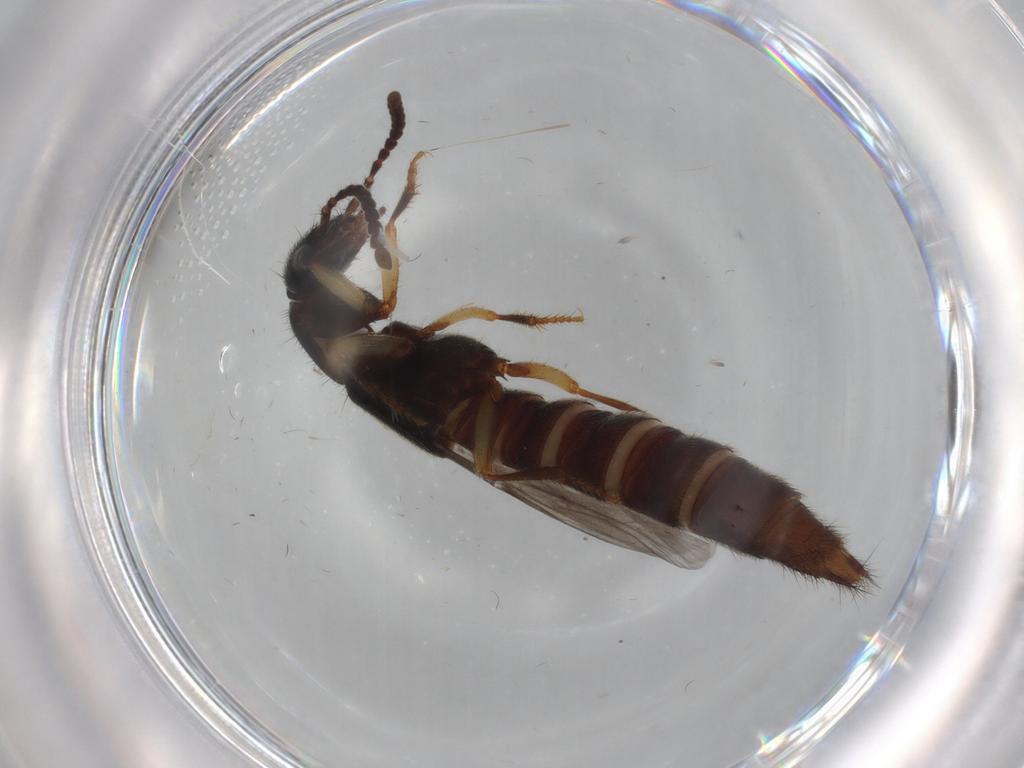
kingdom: Animalia
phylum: Arthropoda
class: Insecta
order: Coleoptera
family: Staphylinidae
